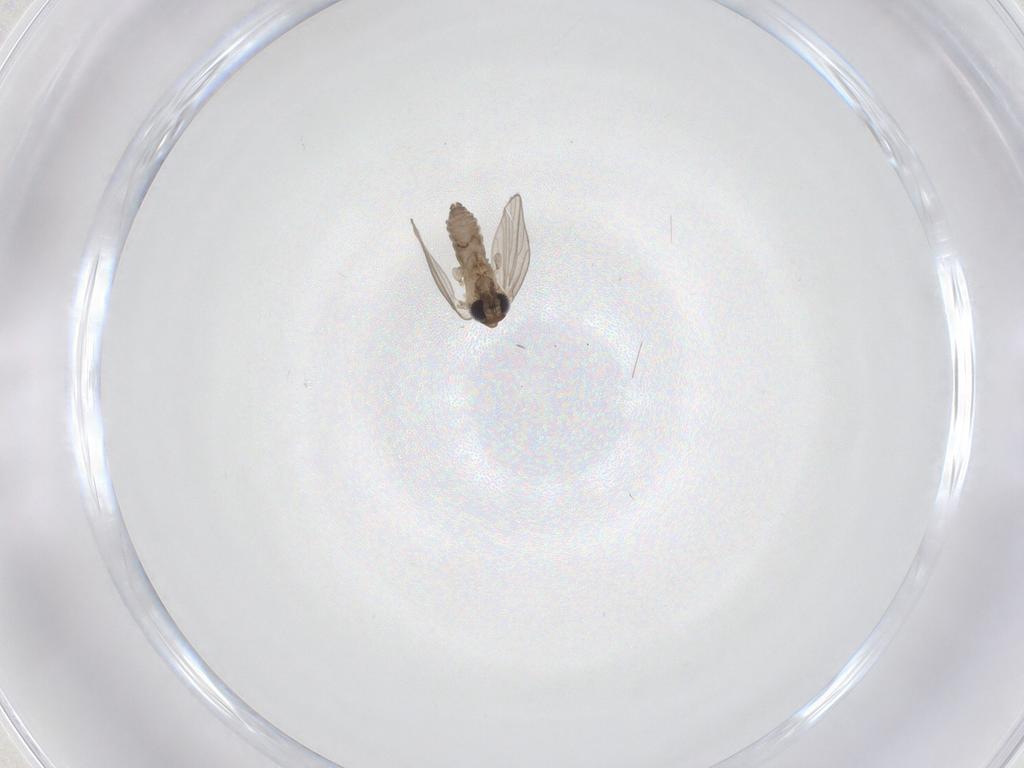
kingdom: Animalia
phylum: Arthropoda
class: Insecta
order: Diptera
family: Psychodidae
